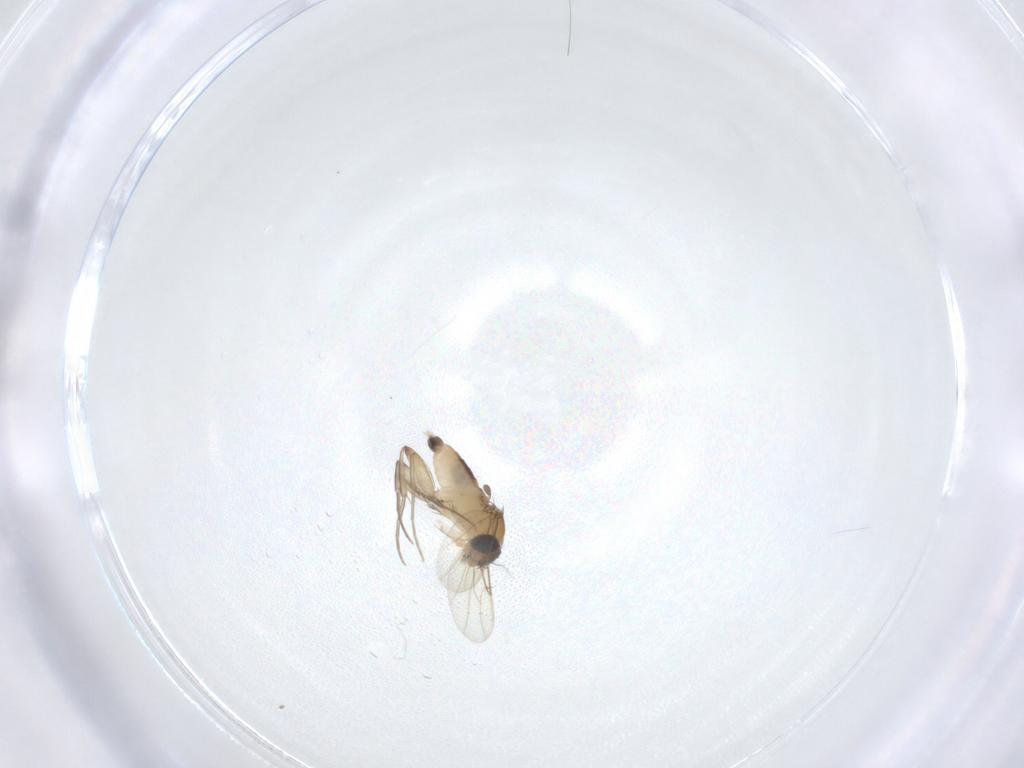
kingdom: Animalia
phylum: Arthropoda
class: Insecta
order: Diptera
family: Phoridae
